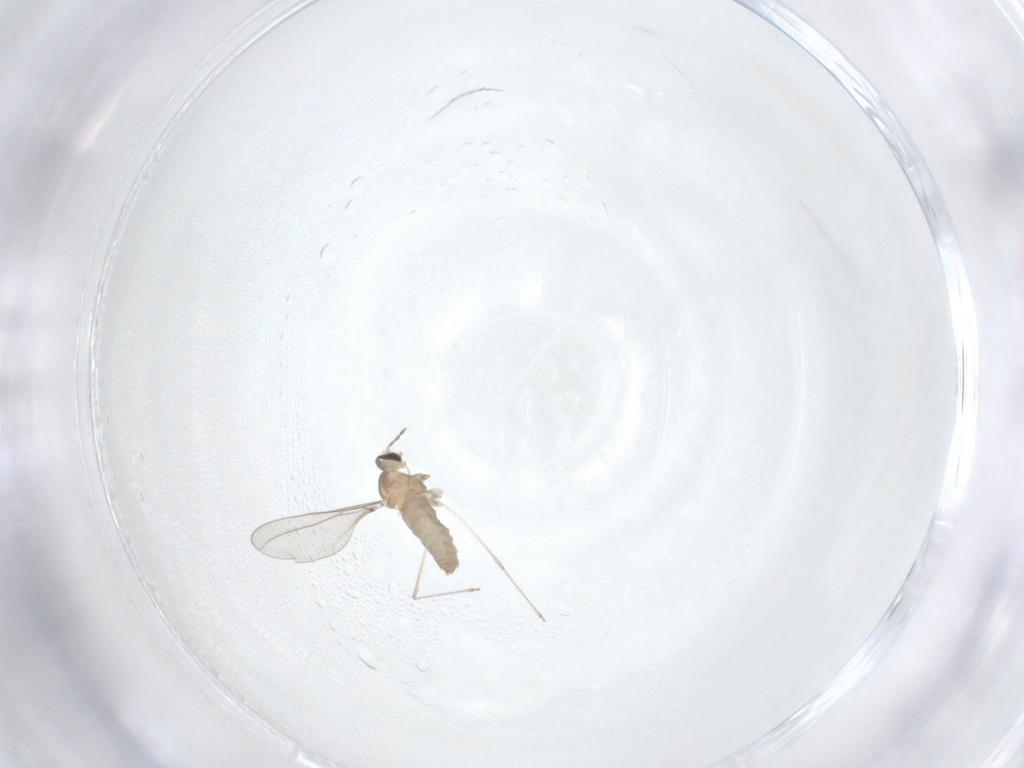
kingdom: Animalia
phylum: Arthropoda
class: Insecta
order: Diptera
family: Cecidomyiidae
